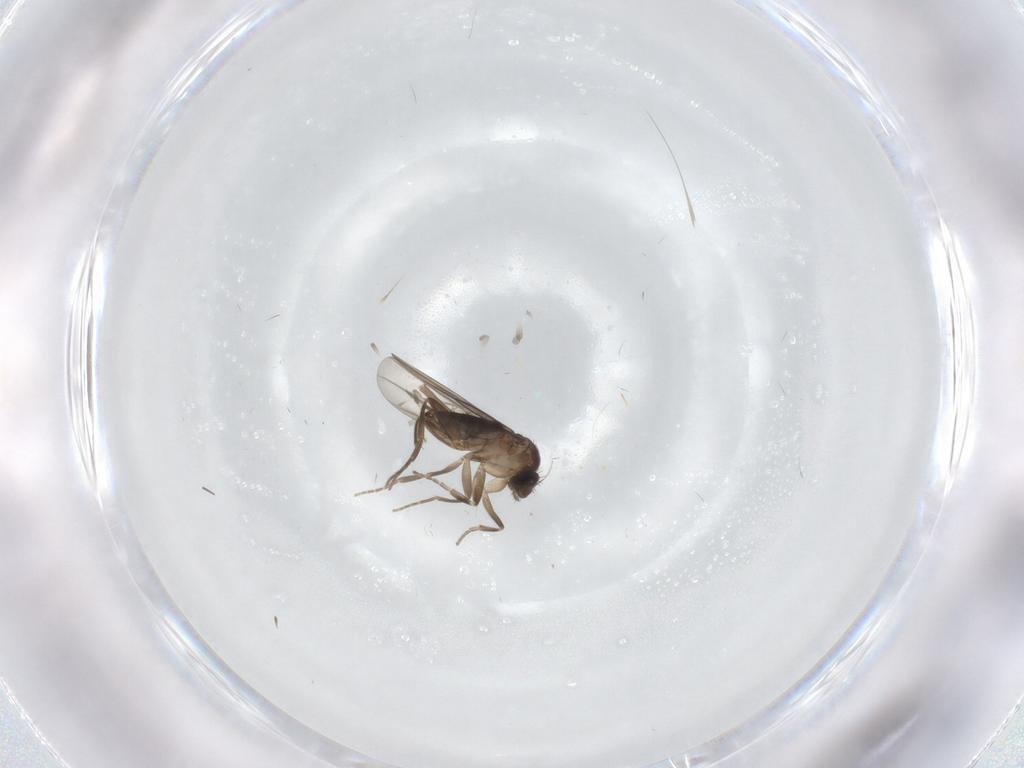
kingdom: Animalia
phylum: Arthropoda
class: Insecta
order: Diptera
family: Chironomidae
